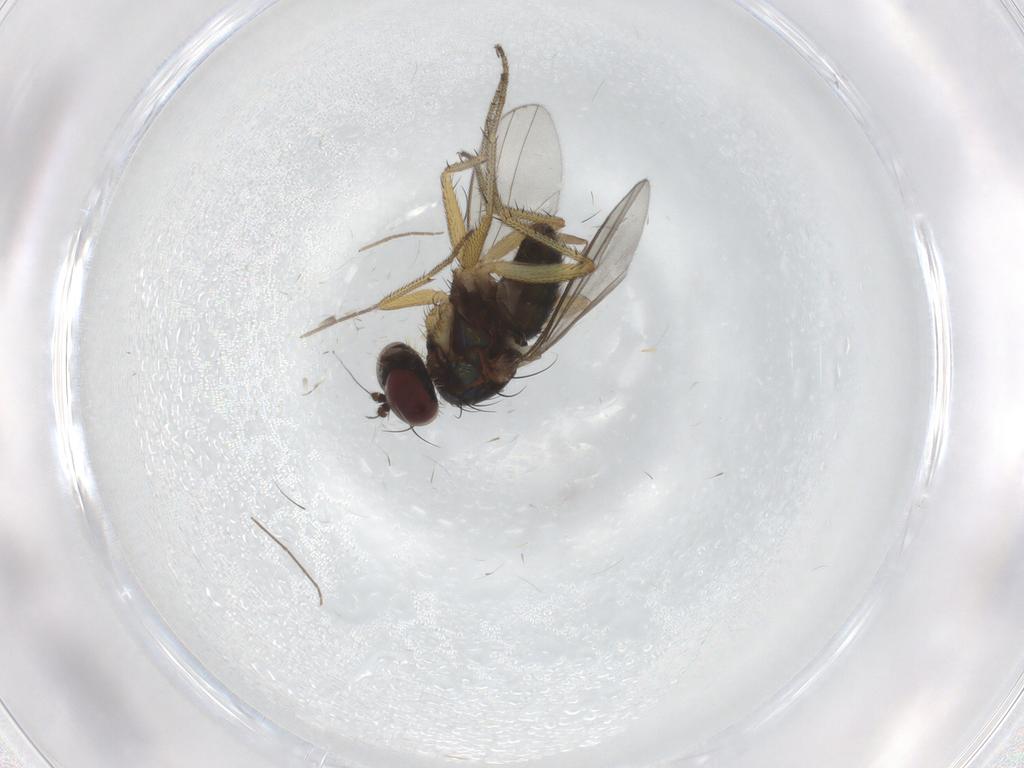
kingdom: Animalia
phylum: Arthropoda
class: Insecta
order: Diptera
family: Chironomidae
